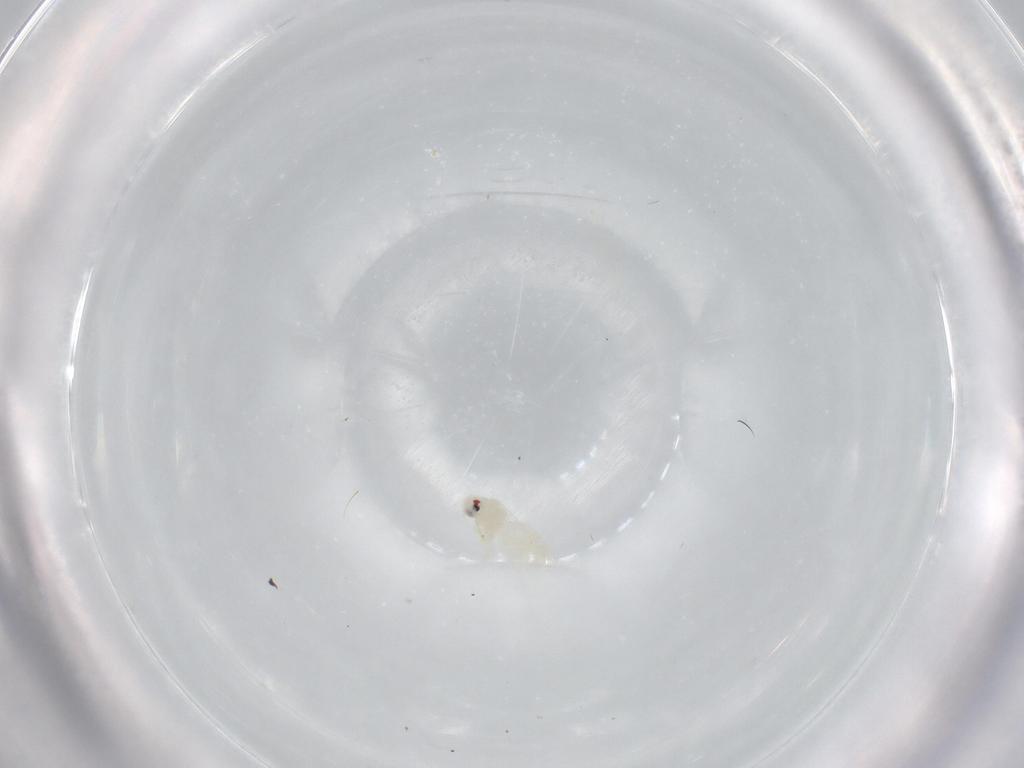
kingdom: Animalia
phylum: Arthropoda
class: Insecta
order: Hemiptera
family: Aleyrodidae
